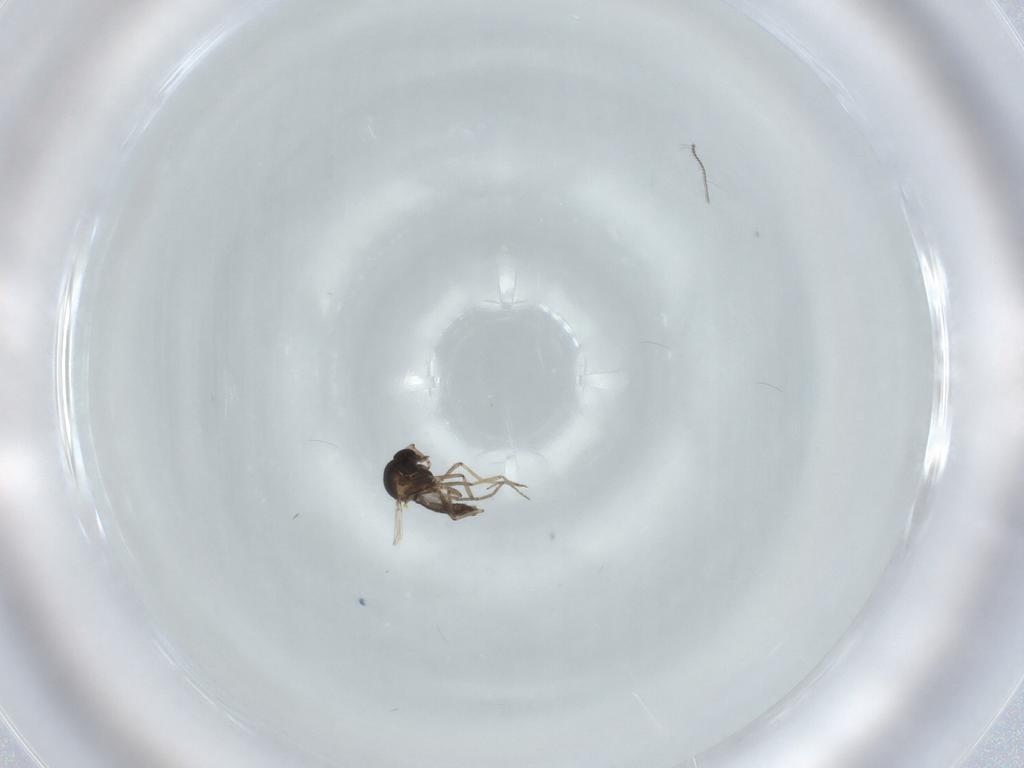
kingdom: Animalia
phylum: Arthropoda
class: Insecta
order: Diptera
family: Ceratopogonidae
